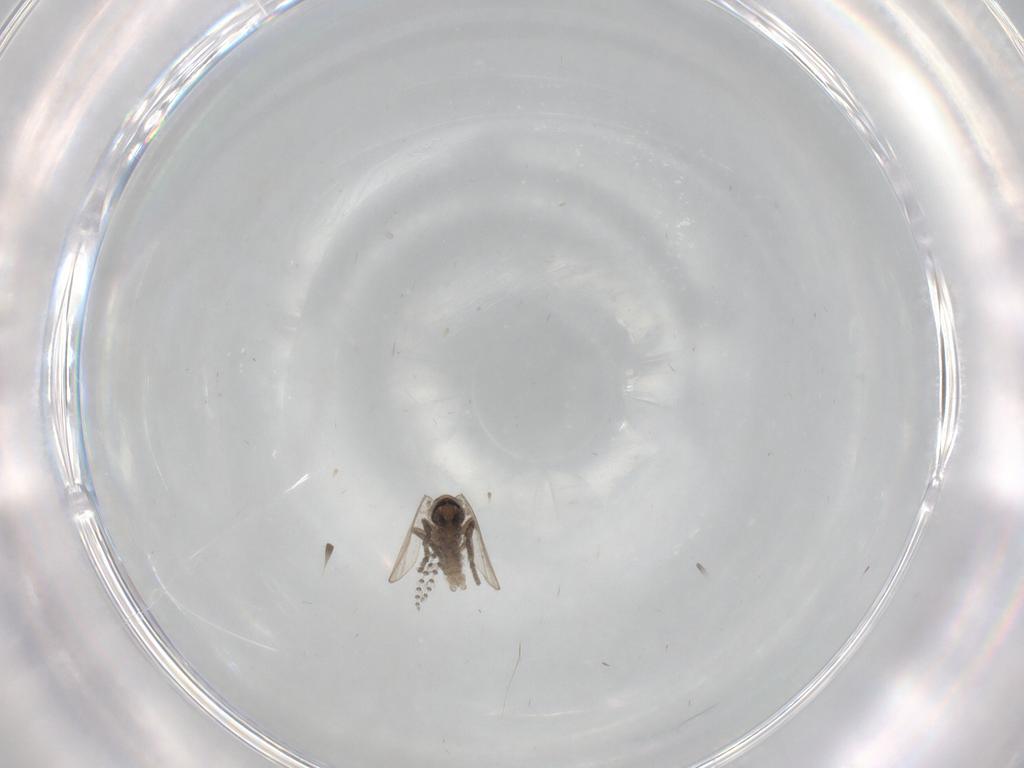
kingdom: Animalia
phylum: Arthropoda
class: Insecta
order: Diptera
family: Psychodidae
